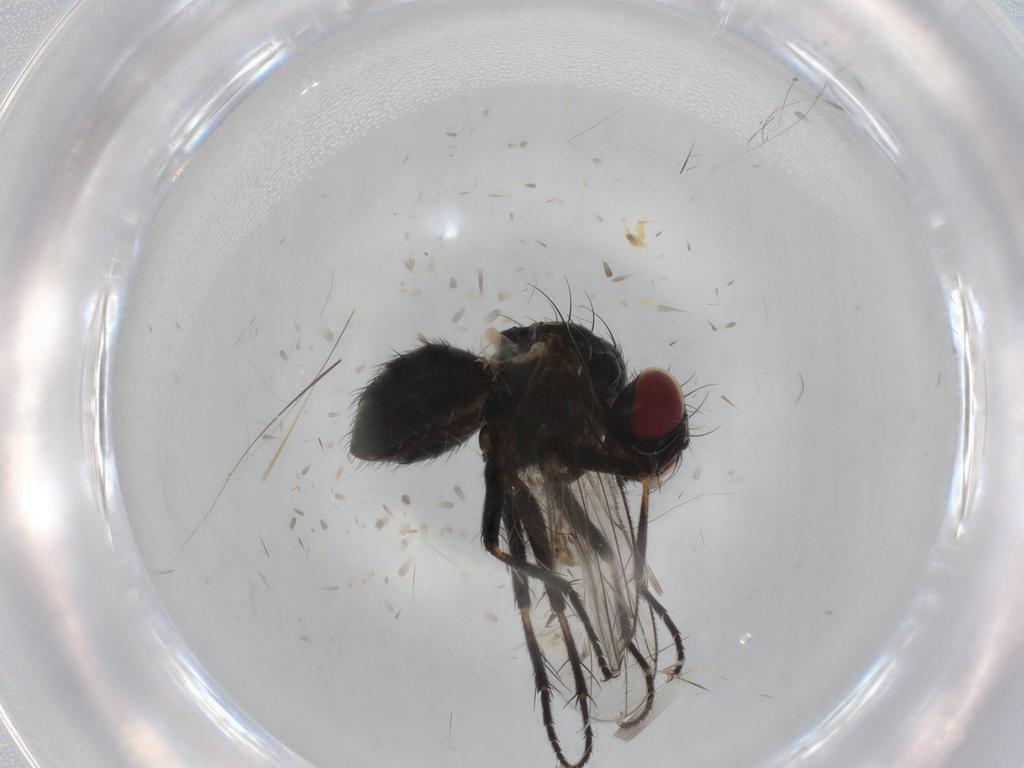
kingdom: Animalia
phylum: Arthropoda
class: Insecta
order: Diptera
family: Muscidae
